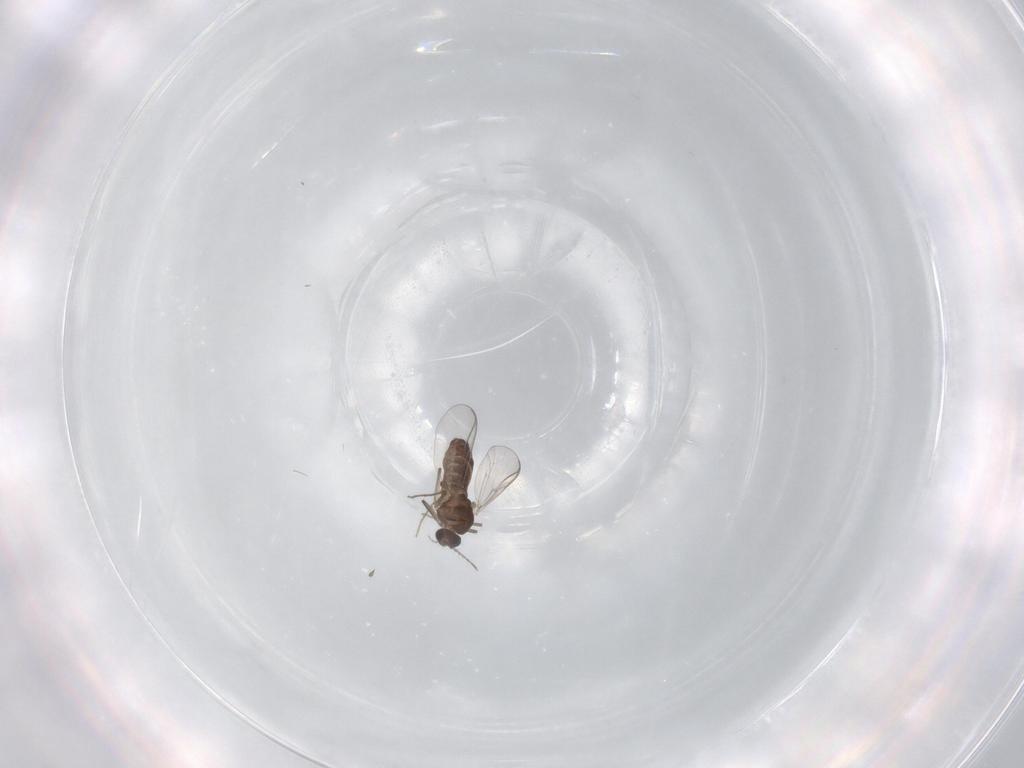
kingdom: Animalia
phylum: Arthropoda
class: Insecta
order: Diptera
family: Chironomidae
